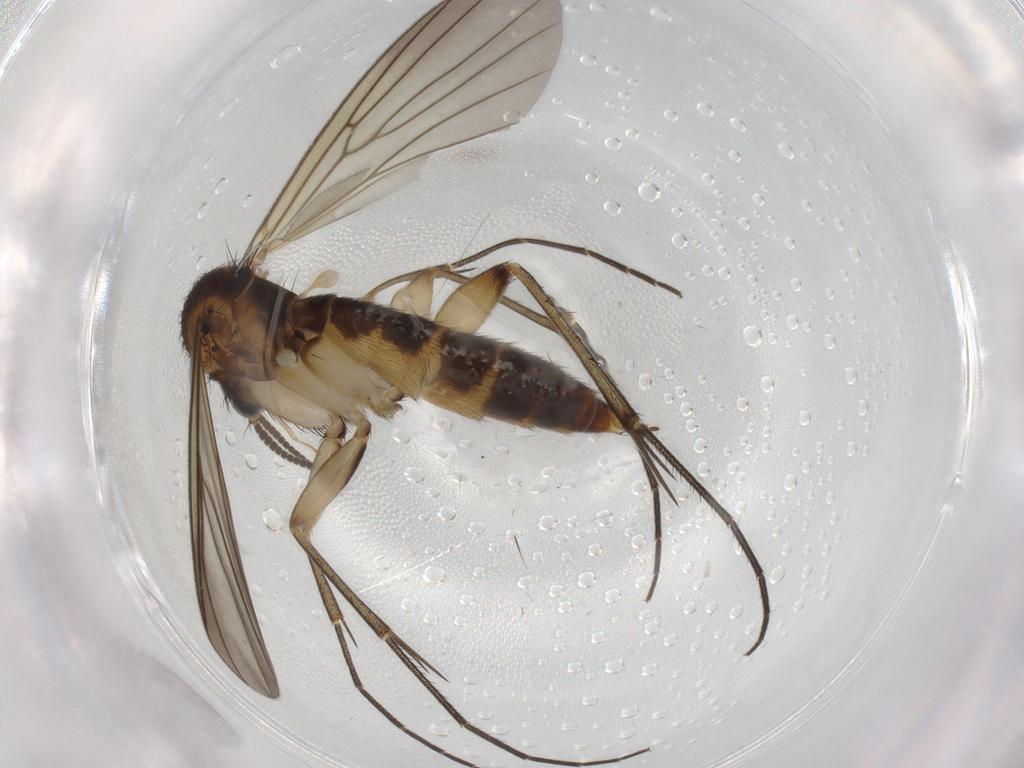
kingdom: Animalia
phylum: Arthropoda
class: Insecta
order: Diptera
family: Mycetophilidae
